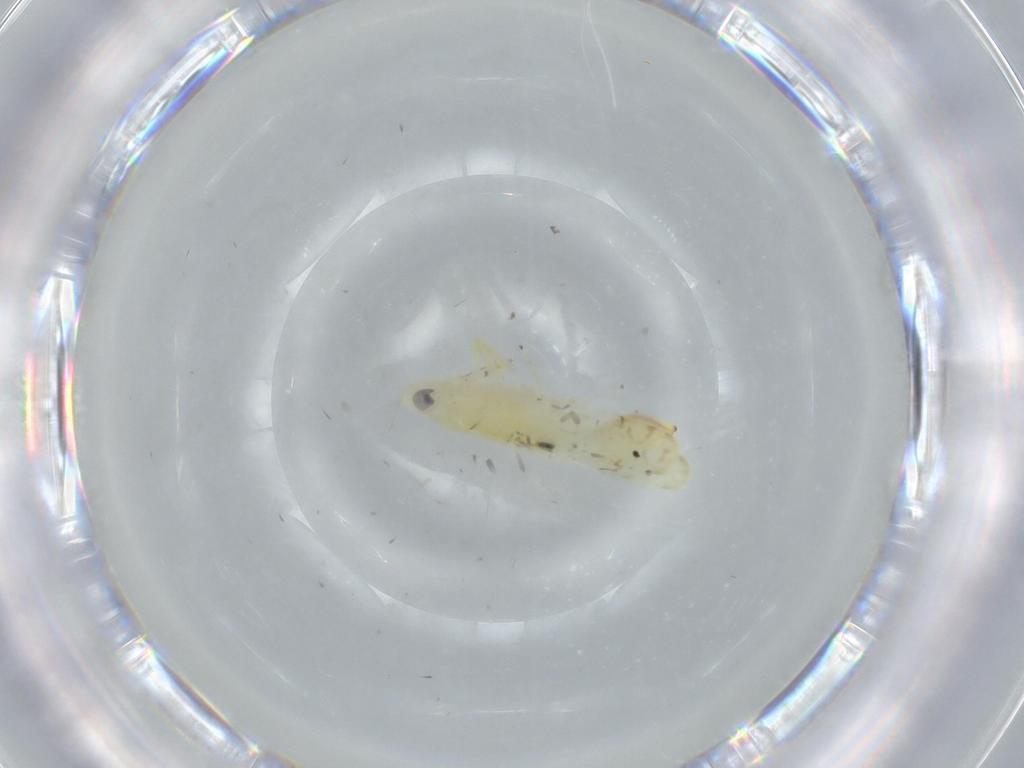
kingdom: Animalia
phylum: Arthropoda
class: Insecta
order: Hemiptera
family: Cicadellidae
